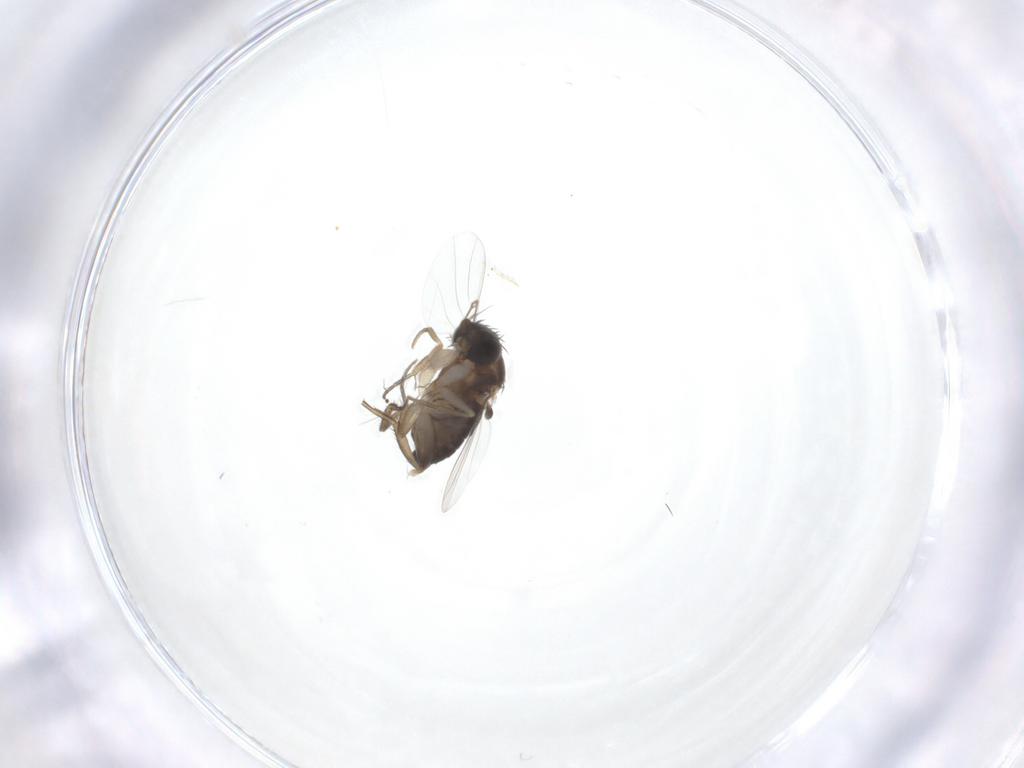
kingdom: Animalia
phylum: Arthropoda
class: Insecta
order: Diptera
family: Phoridae
